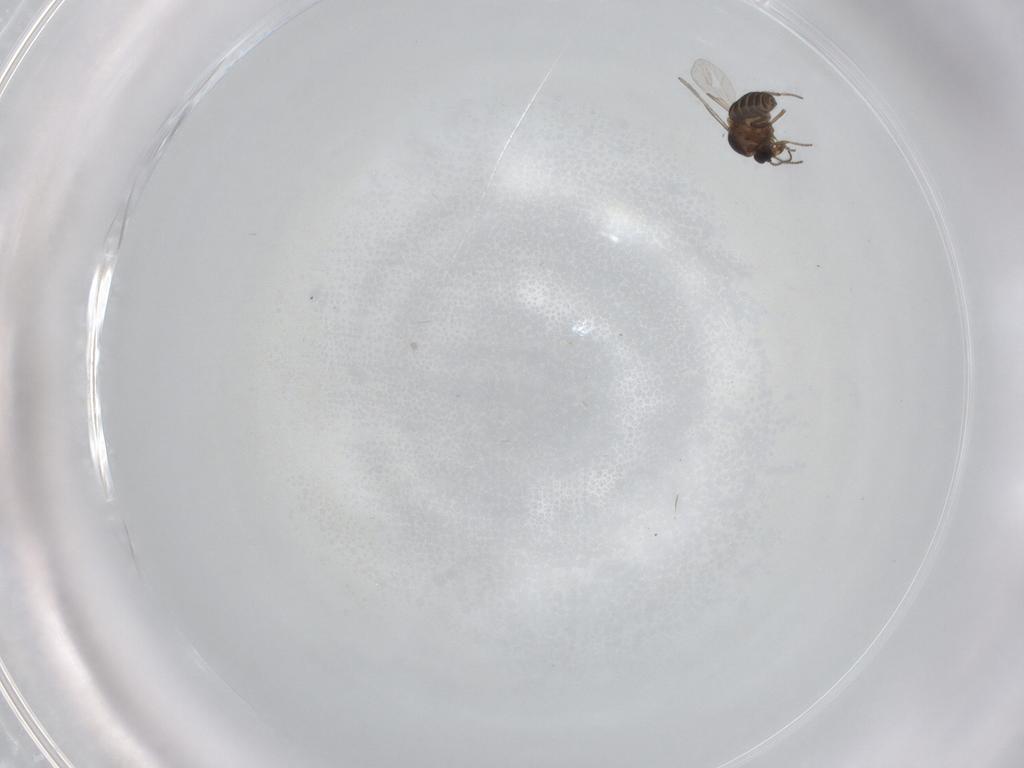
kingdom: Animalia
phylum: Arthropoda
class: Insecta
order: Diptera
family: Ceratopogonidae
